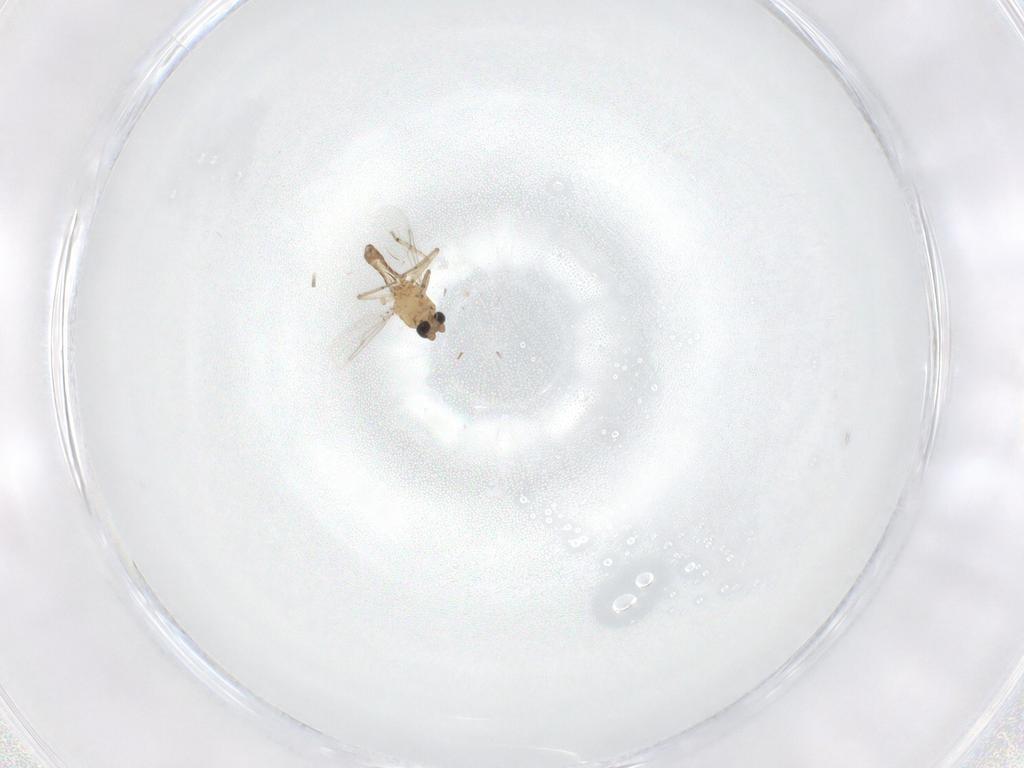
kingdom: Animalia
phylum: Arthropoda
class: Insecta
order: Diptera
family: Ceratopogonidae
